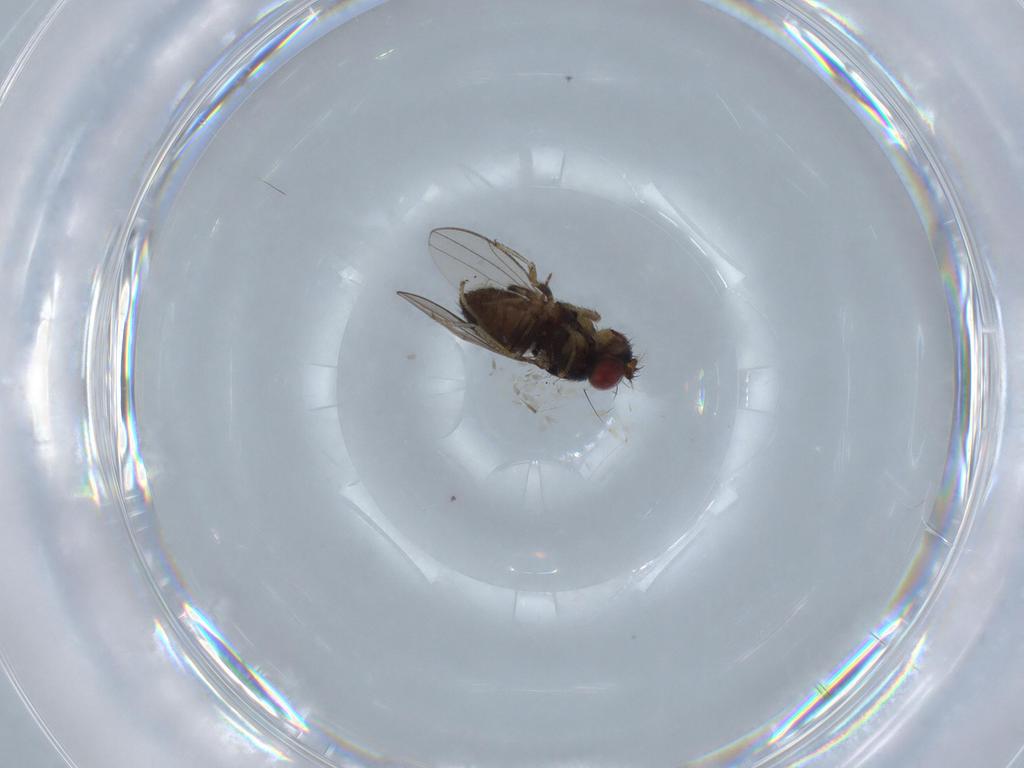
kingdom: Animalia
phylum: Arthropoda
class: Insecta
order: Diptera
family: Ephydridae
